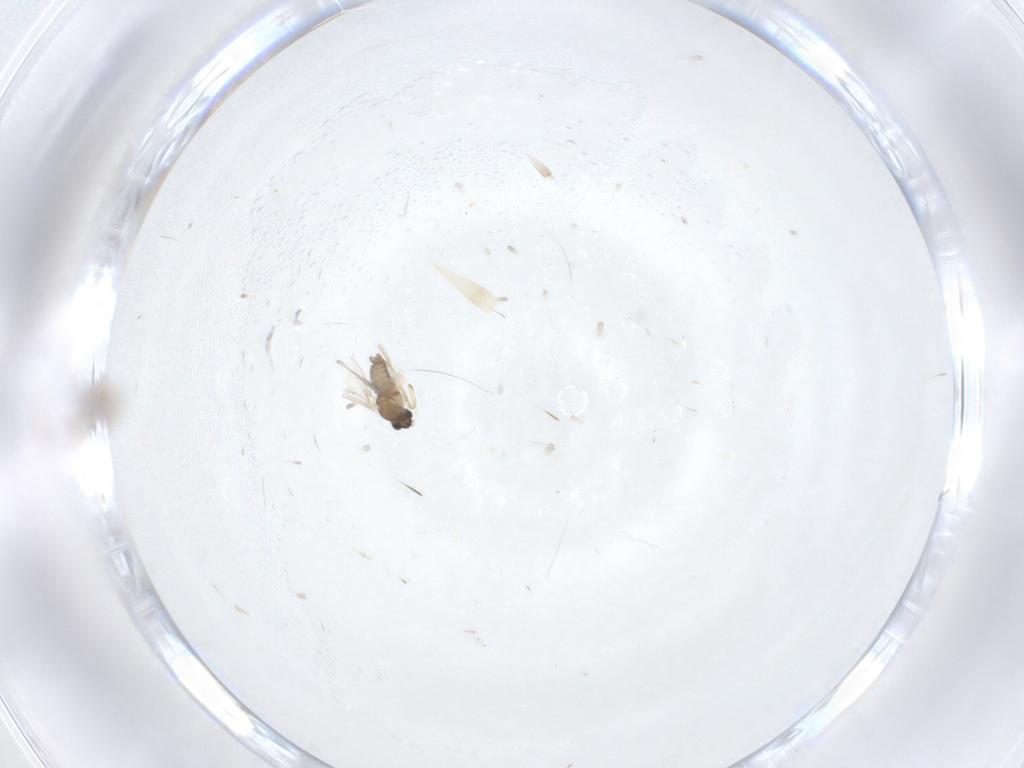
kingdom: Animalia
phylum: Arthropoda
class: Insecta
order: Diptera
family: Cecidomyiidae
